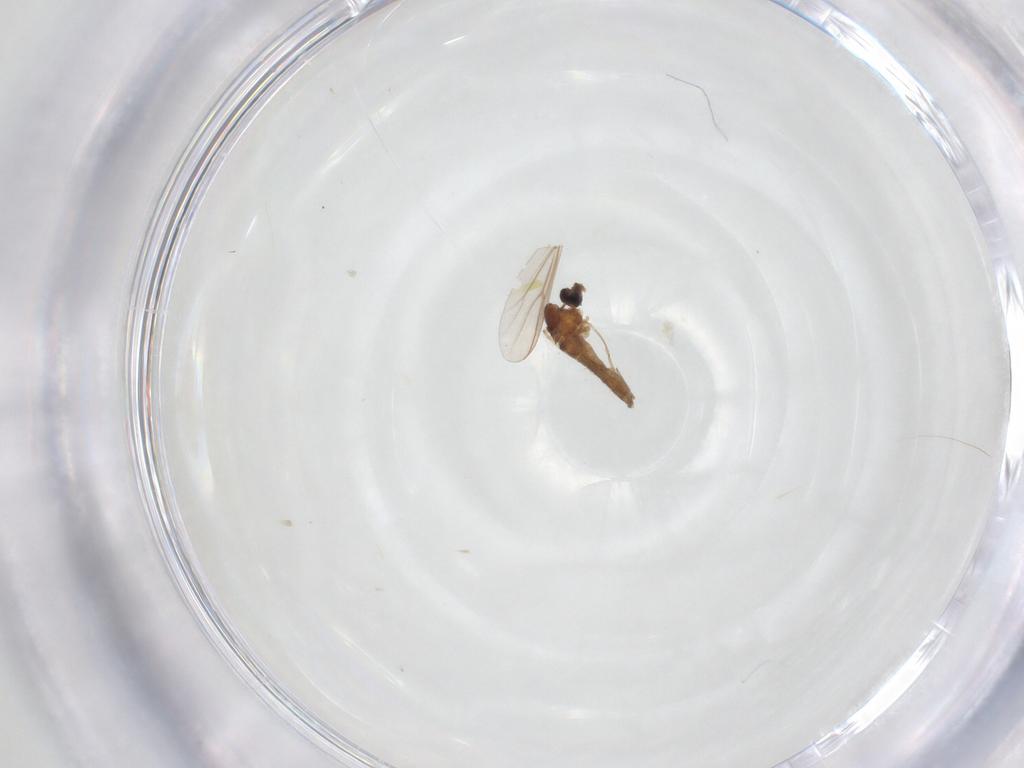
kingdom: Animalia
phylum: Arthropoda
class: Insecta
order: Diptera
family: Chironomidae
